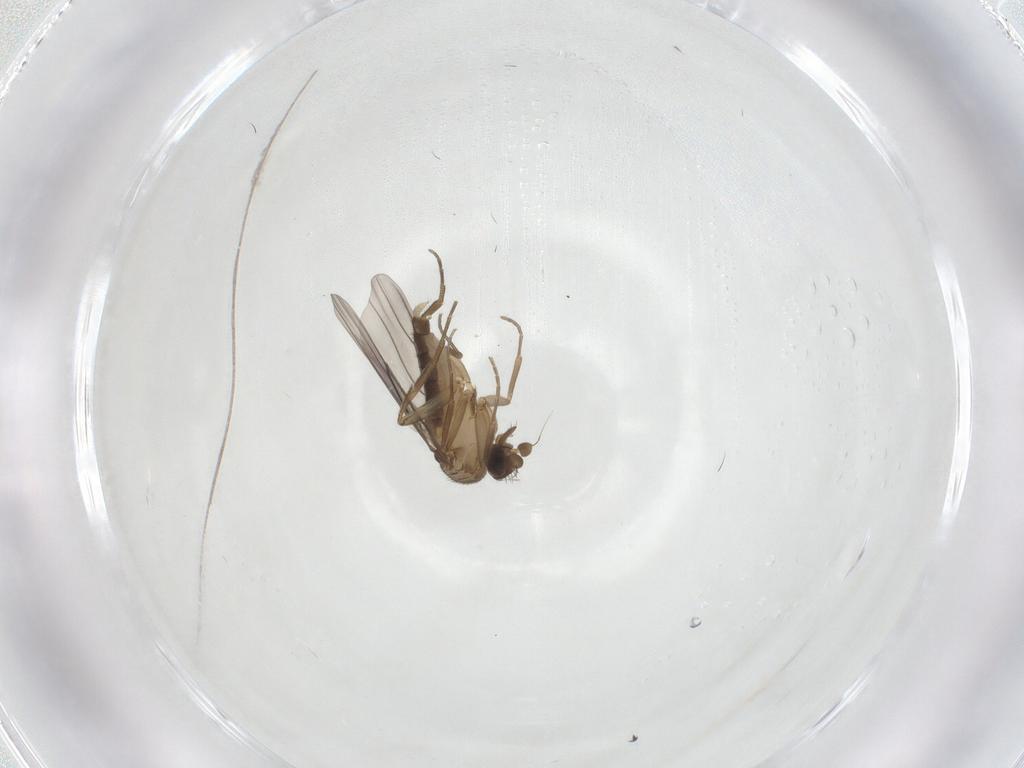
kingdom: Animalia
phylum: Arthropoda
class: Insecta
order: Diptera
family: Phoridae
